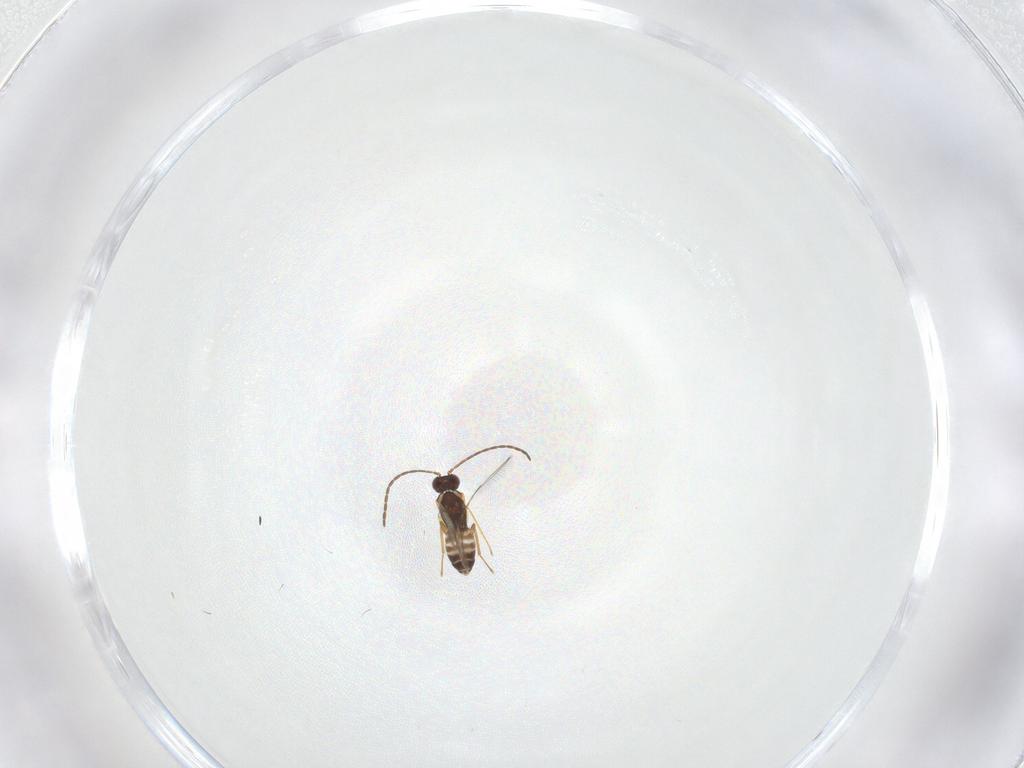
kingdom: Animalia
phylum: Arthropoda
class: Insecta
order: Hymenoptera
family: Mymaridae
